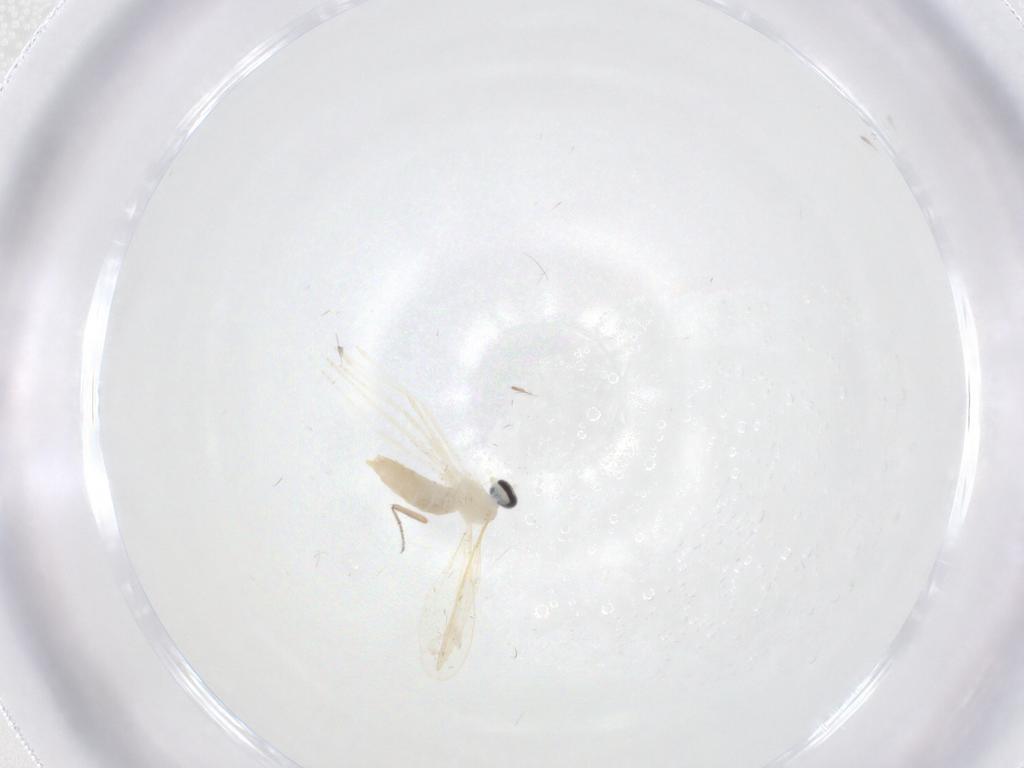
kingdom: Animalia
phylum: Arthropoda
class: Insecta
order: Diptera
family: Cecidomyiidae
